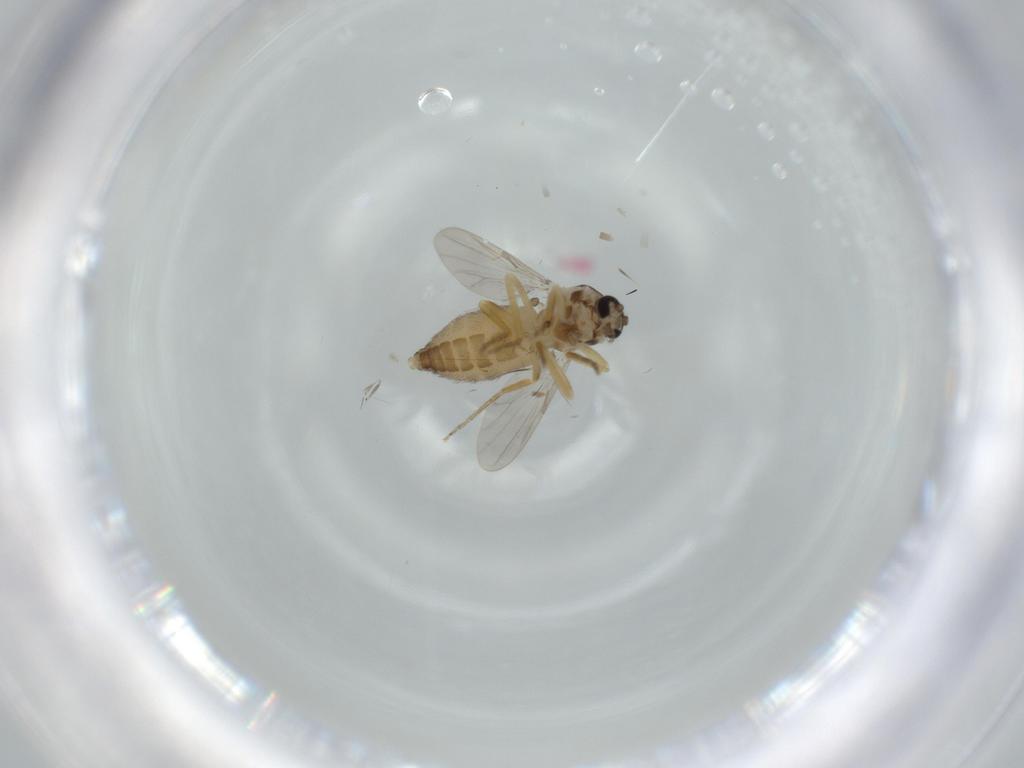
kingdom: Animalia
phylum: Arthropoda
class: Insecta
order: Diptera
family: Ceratopogonidae
